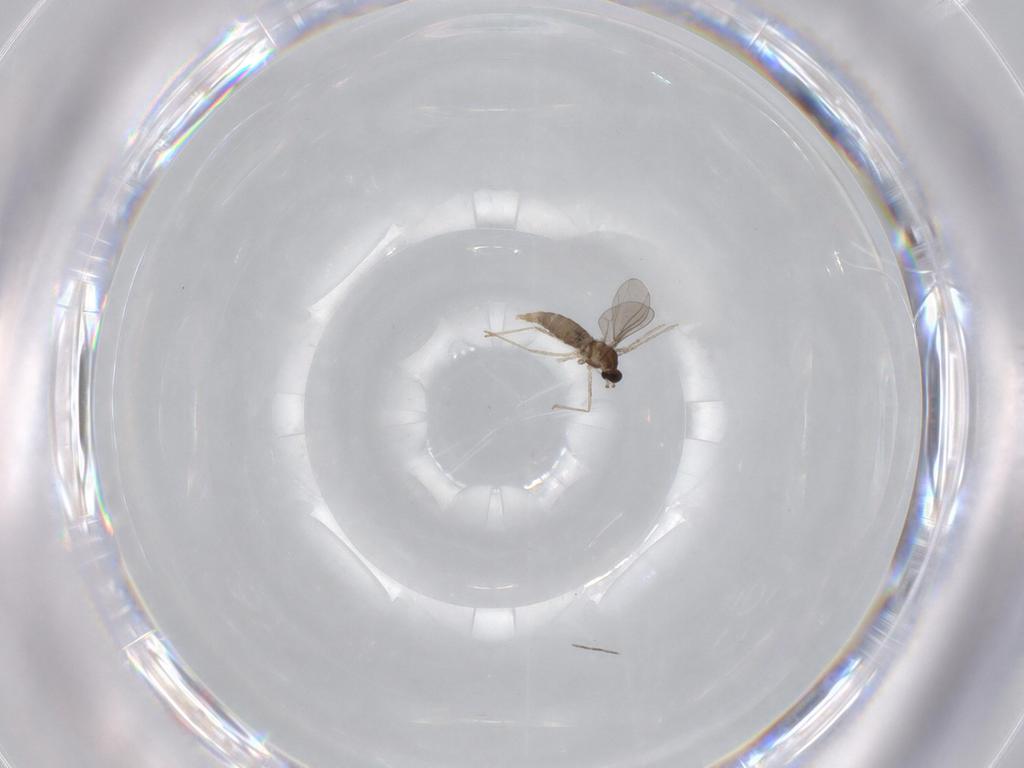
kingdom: Animalia
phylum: Arthropoda
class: Insecta
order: Diptera
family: Drosophilidae
